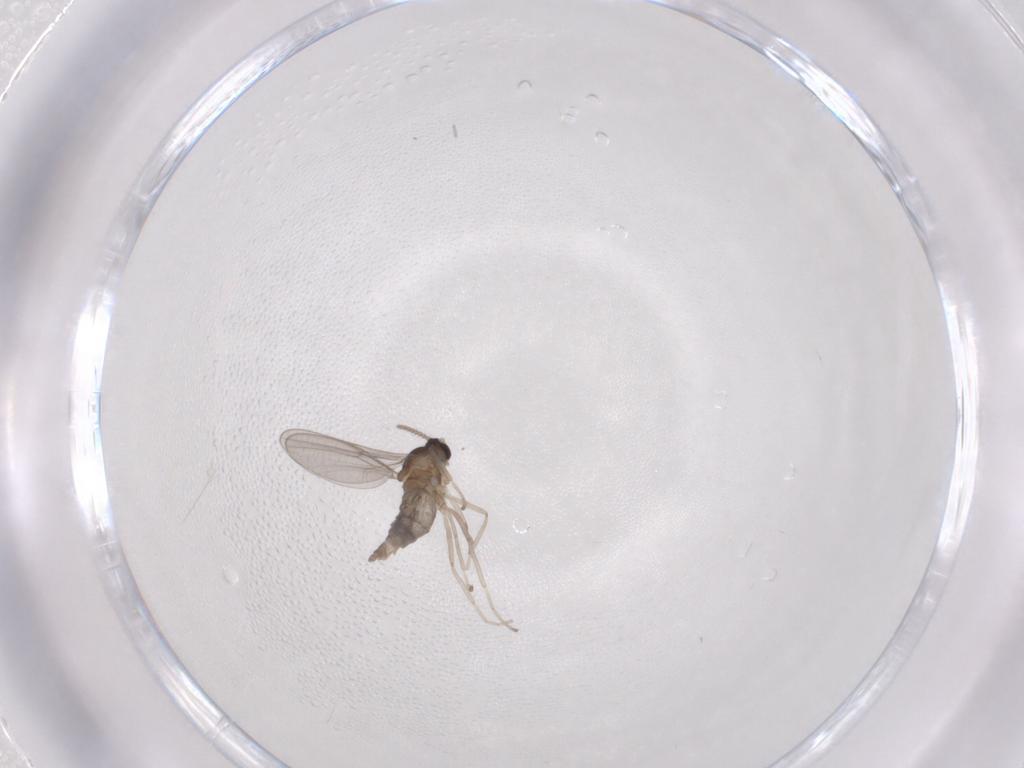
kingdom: Animalia
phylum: Arthropoda
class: Insecta
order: Diptera
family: Cecidomyiidae
